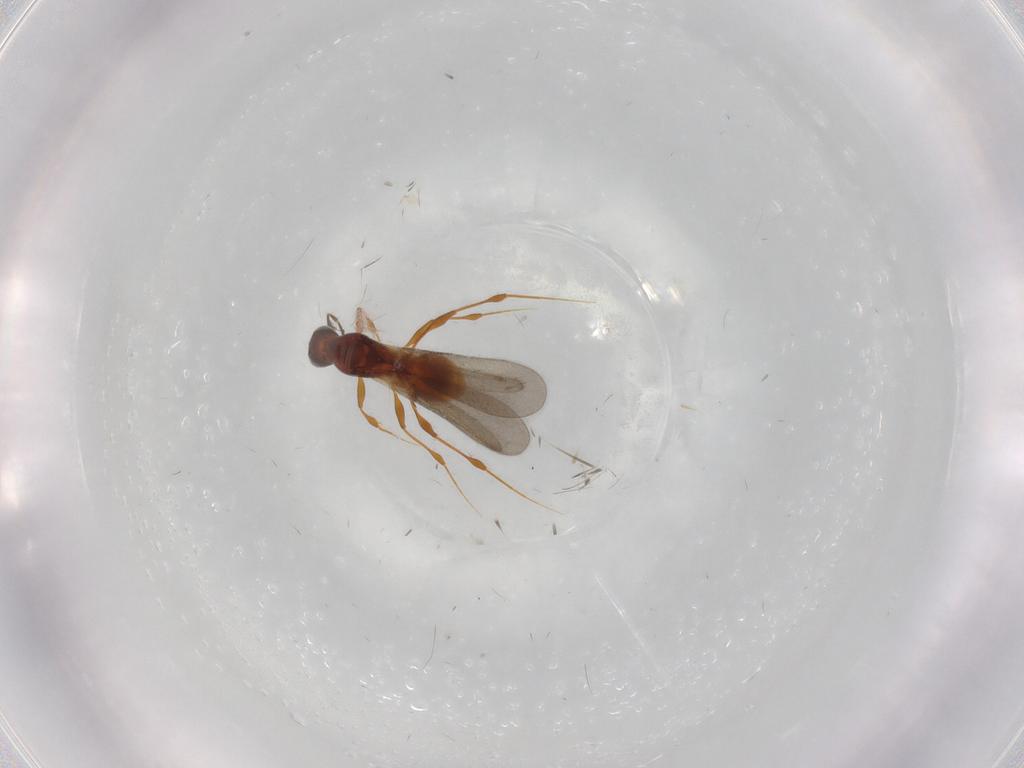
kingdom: Animalia
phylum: Arthropoda
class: Insecta
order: Hymenoptera
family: Platygastridae
